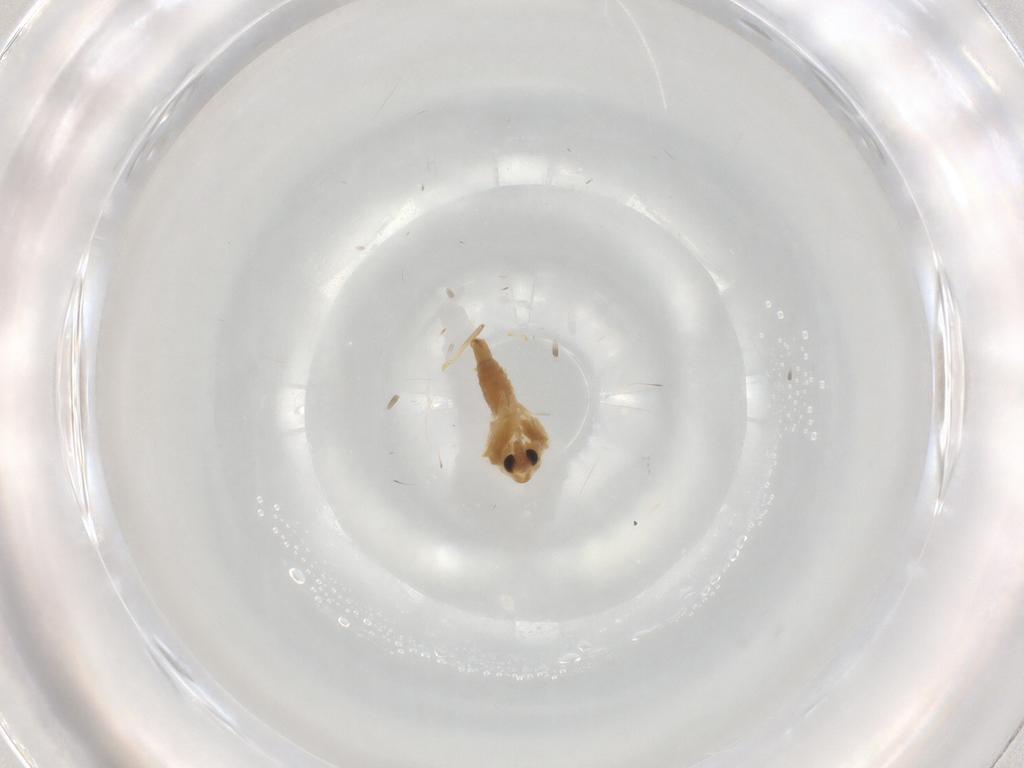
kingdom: Animalia
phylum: Arthropoda
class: Insecta
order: Diptera
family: Chironomidae
